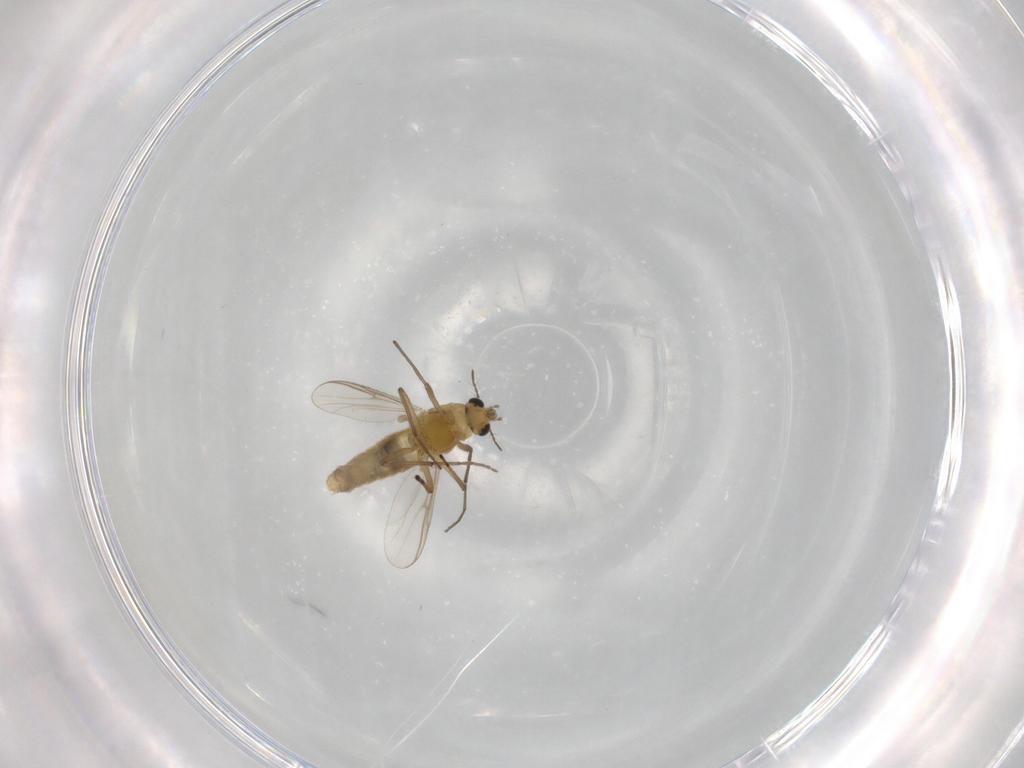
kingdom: Animalia
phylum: Arthropoda
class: Insecta
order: Diptera
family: Chironomidae
